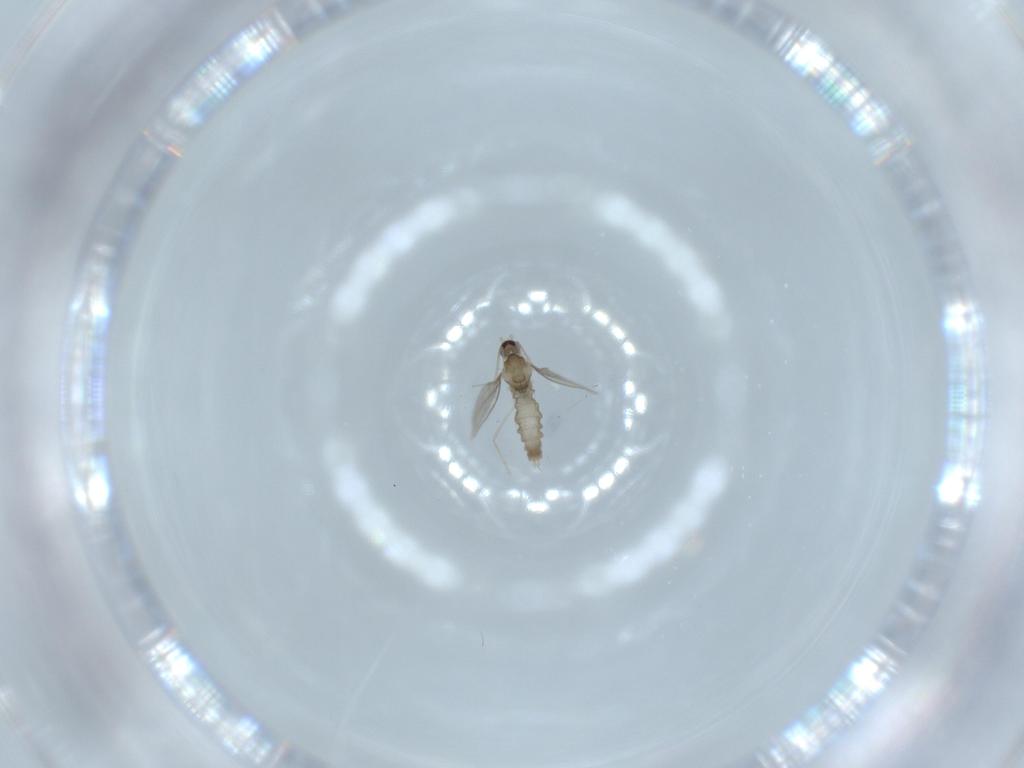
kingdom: Animalia
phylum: Arthropoda
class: Insecta
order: Diptera
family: Cecidomyiidae
